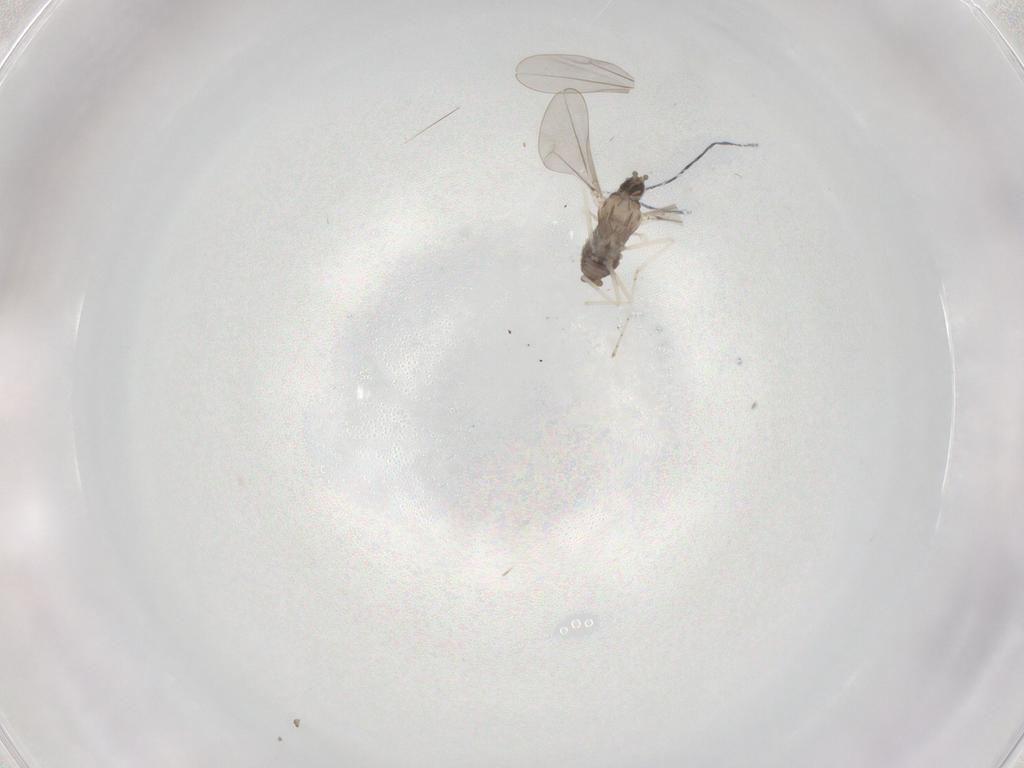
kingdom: Animalia
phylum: Arthropoda
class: Insecta
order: Diptera
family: Cecidomyiidae
